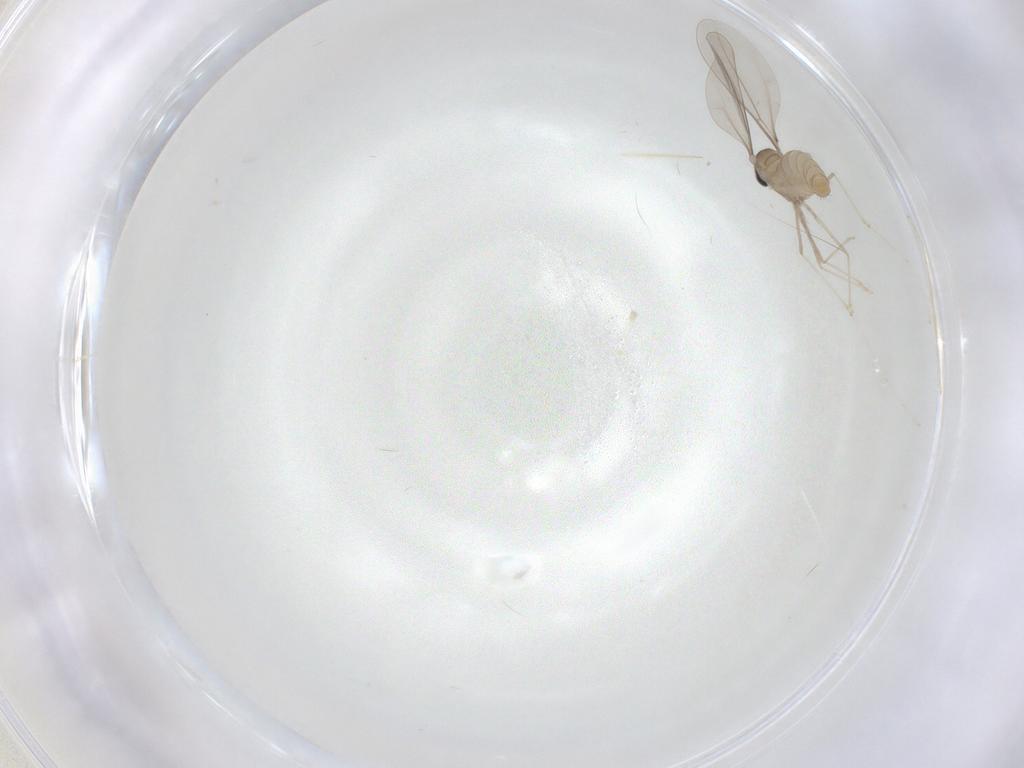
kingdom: Animalia
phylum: Arthropoda
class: Insecta
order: Diptera
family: Cecidomyiidae
